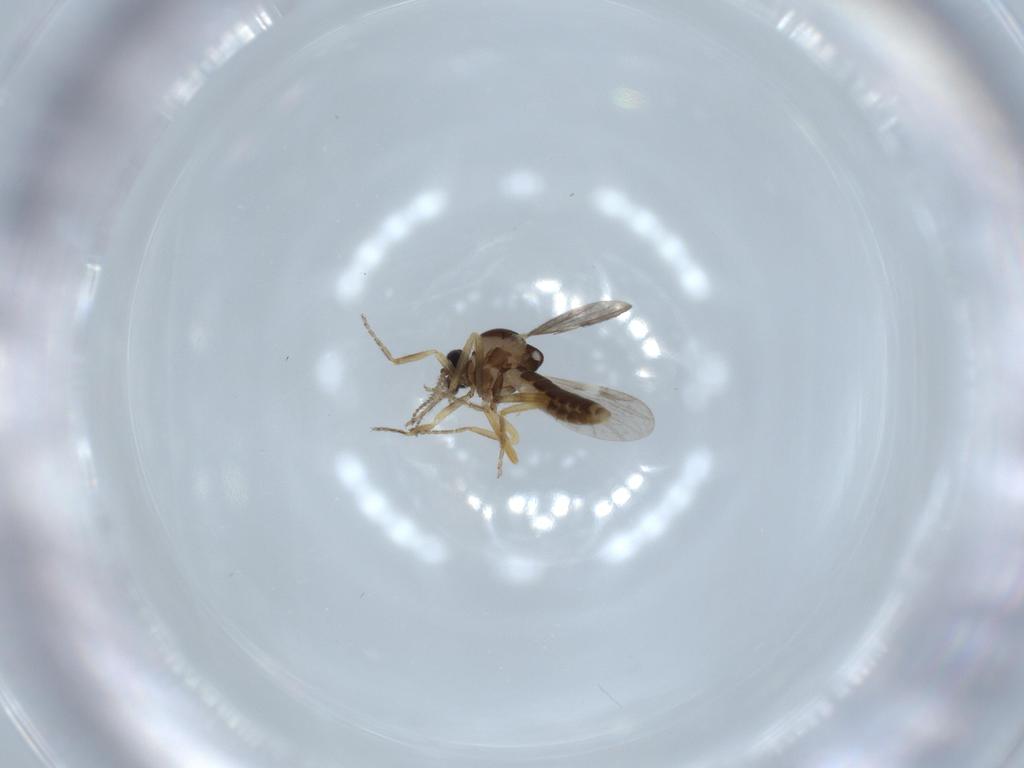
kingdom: Animalia
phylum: Arthropoda
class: Insecta
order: Diptera
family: Ceratopogonidae
